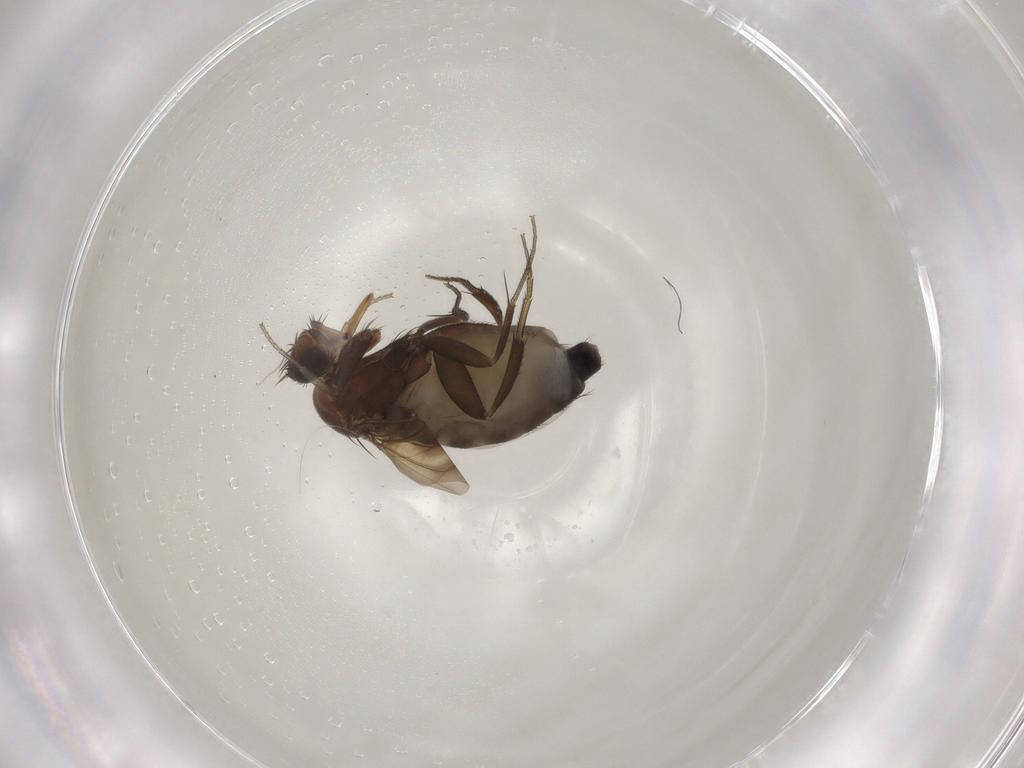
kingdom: Animalia
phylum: Arthropoda
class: Insecta
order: Diptera
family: Phoridae
